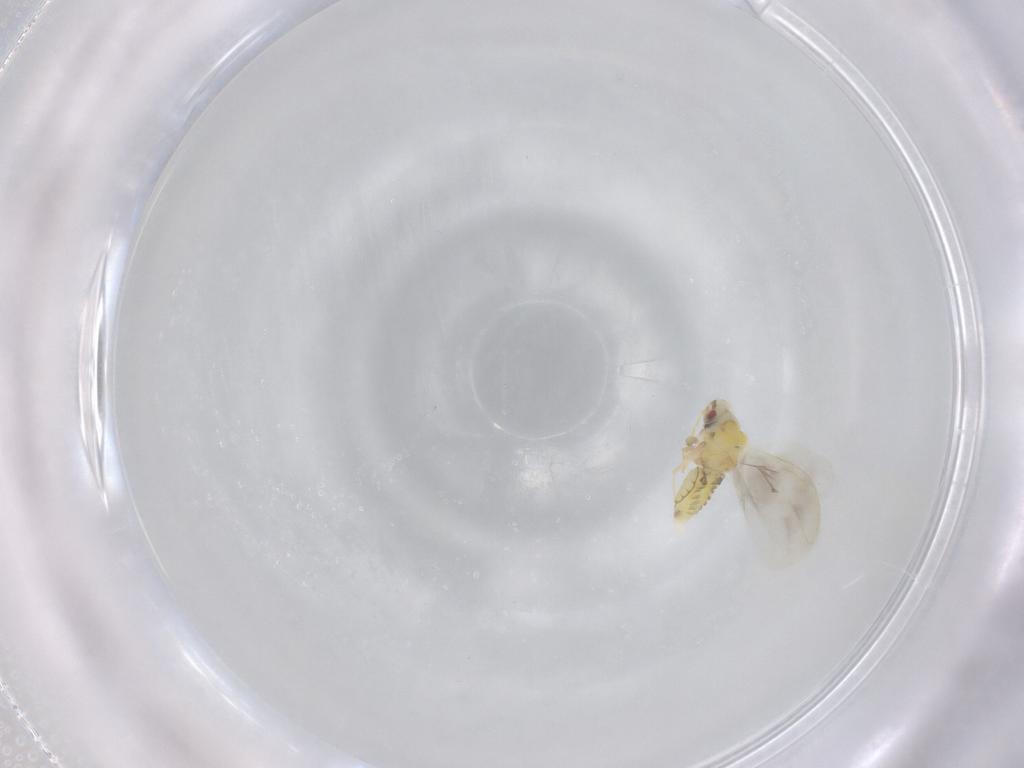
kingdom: Animalia
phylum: Arthropoda
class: Insecta
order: Hemiptera
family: Aleyrodidae
